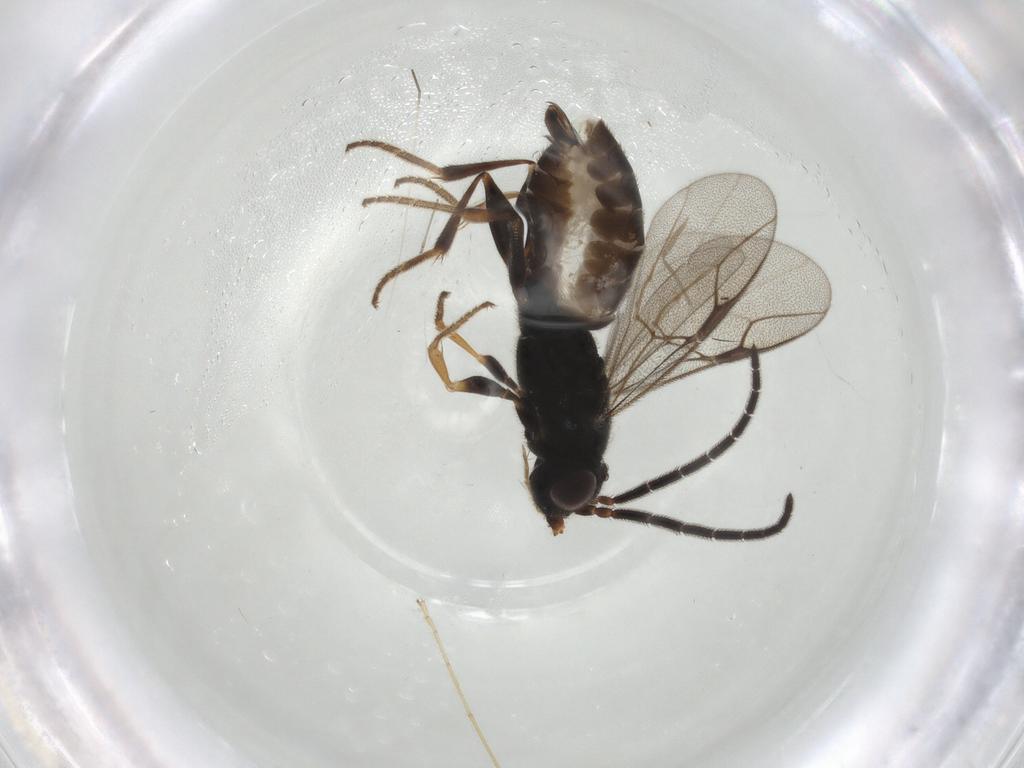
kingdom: Animalia
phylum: Arthropoda
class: Insecta
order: Hymenoptera
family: Dryinidae
